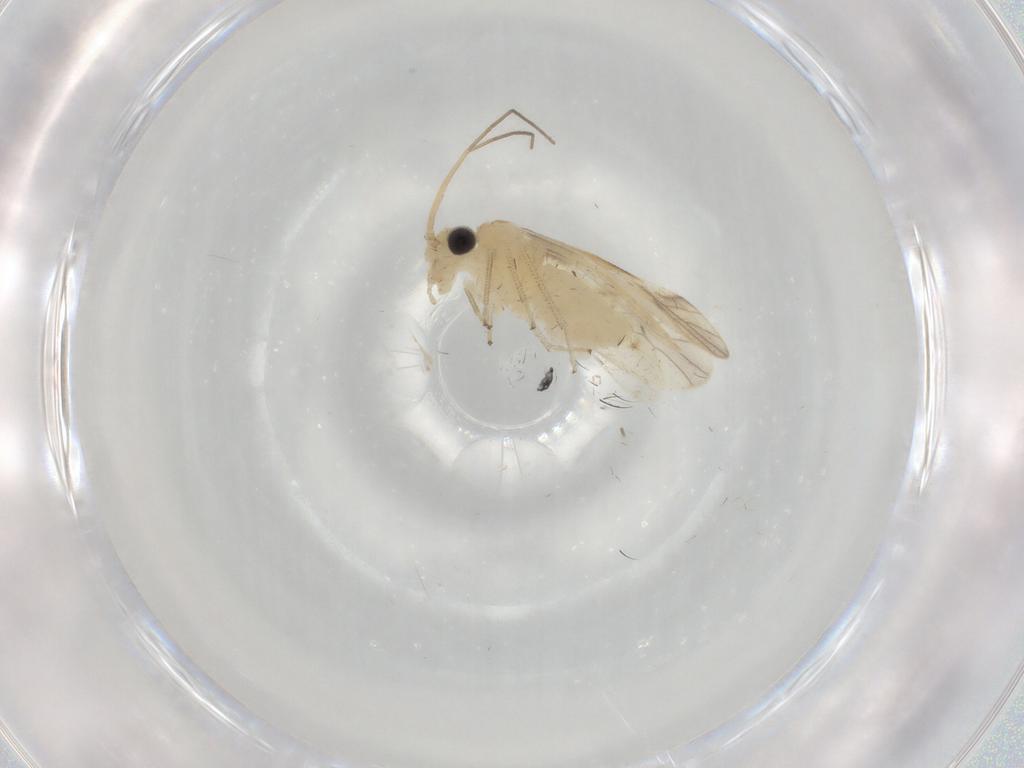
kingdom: Animalia
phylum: Arthropoda
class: Insecta
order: Psocodea
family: Caeciliusidae
